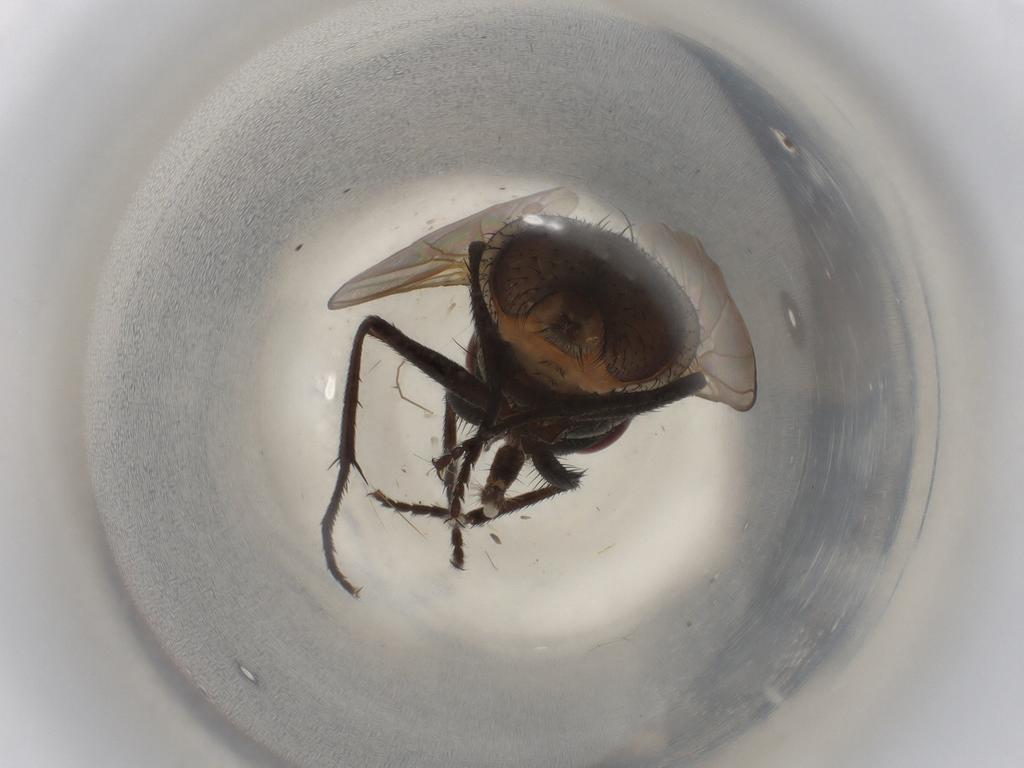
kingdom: Animalia
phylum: Arthropoda
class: Insecta
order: Diptera
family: Muscidae
